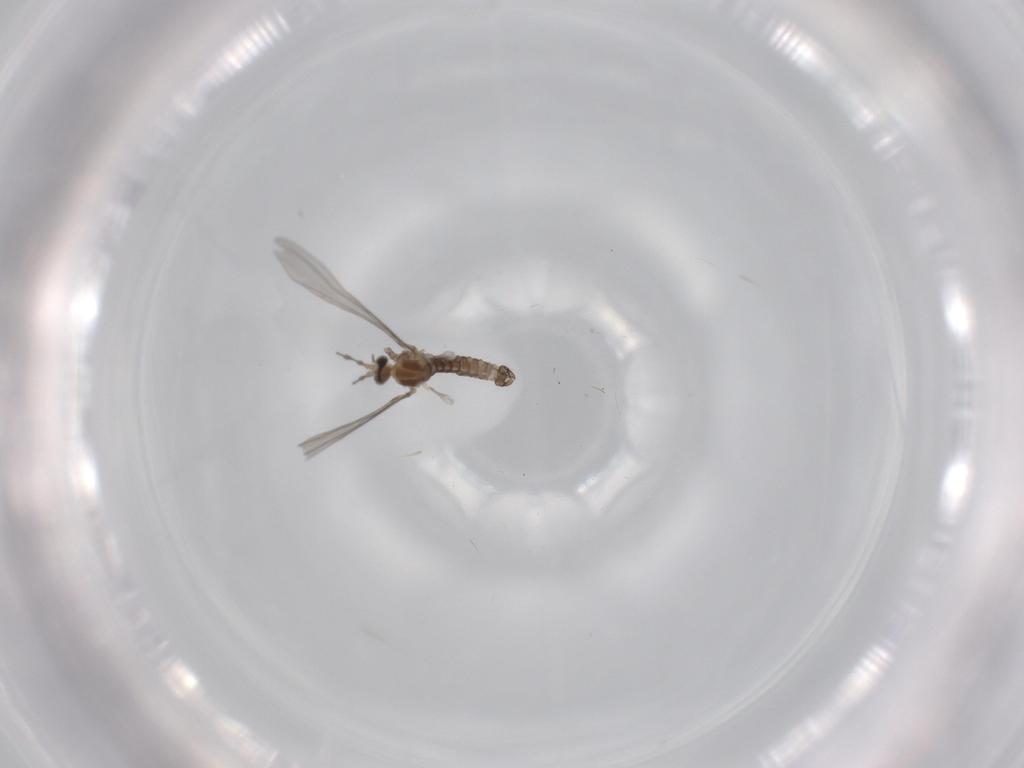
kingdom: Animalia
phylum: Arthropoda
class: Insecta
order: Diptera
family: Cecidomyiidae
